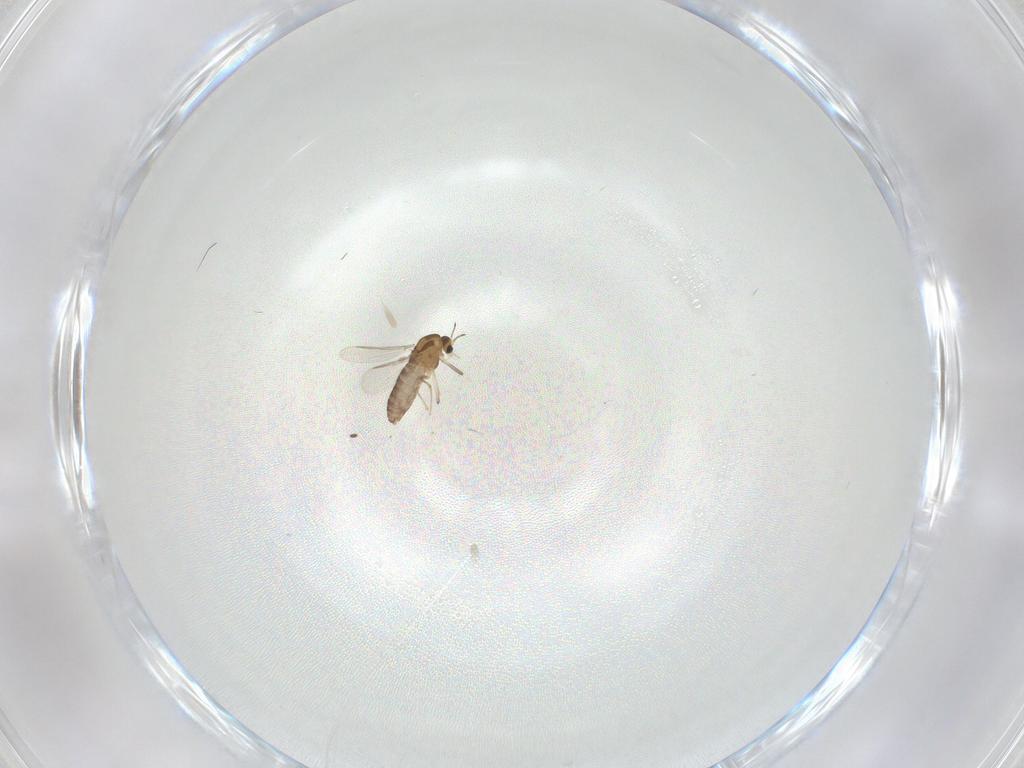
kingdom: Animalia
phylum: Arthropoda
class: Insecta
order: Diptera
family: Chironomidae
